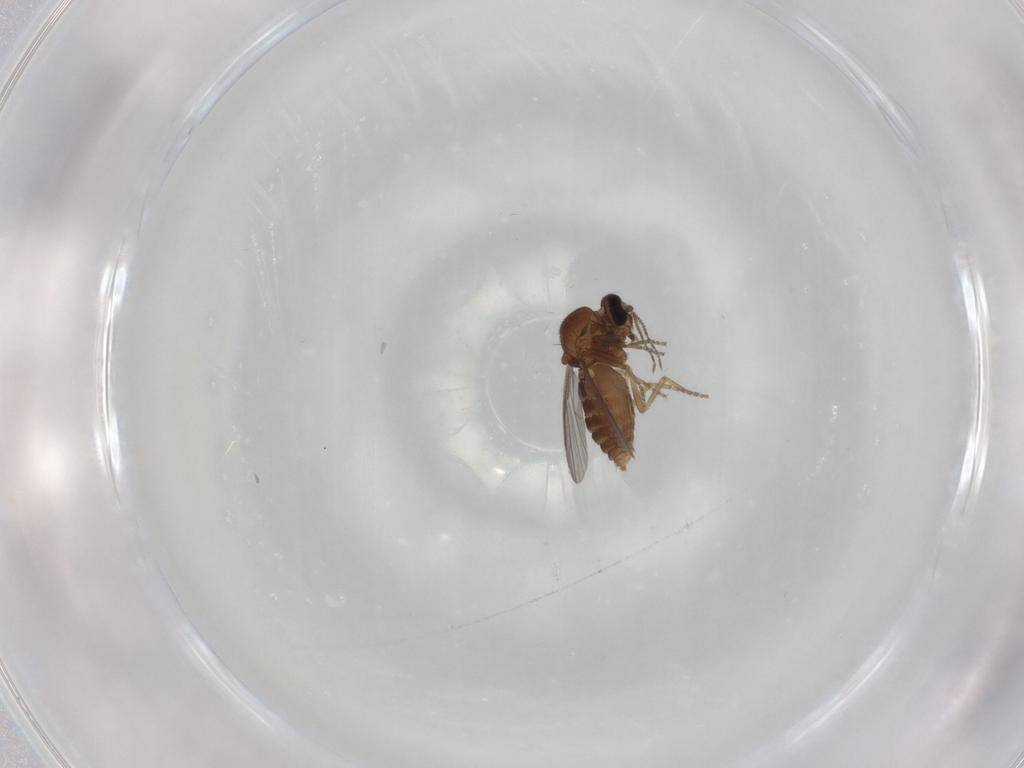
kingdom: Animalia
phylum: Arthropoda
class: Insecta
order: Diptera
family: Ceratopogonidae
